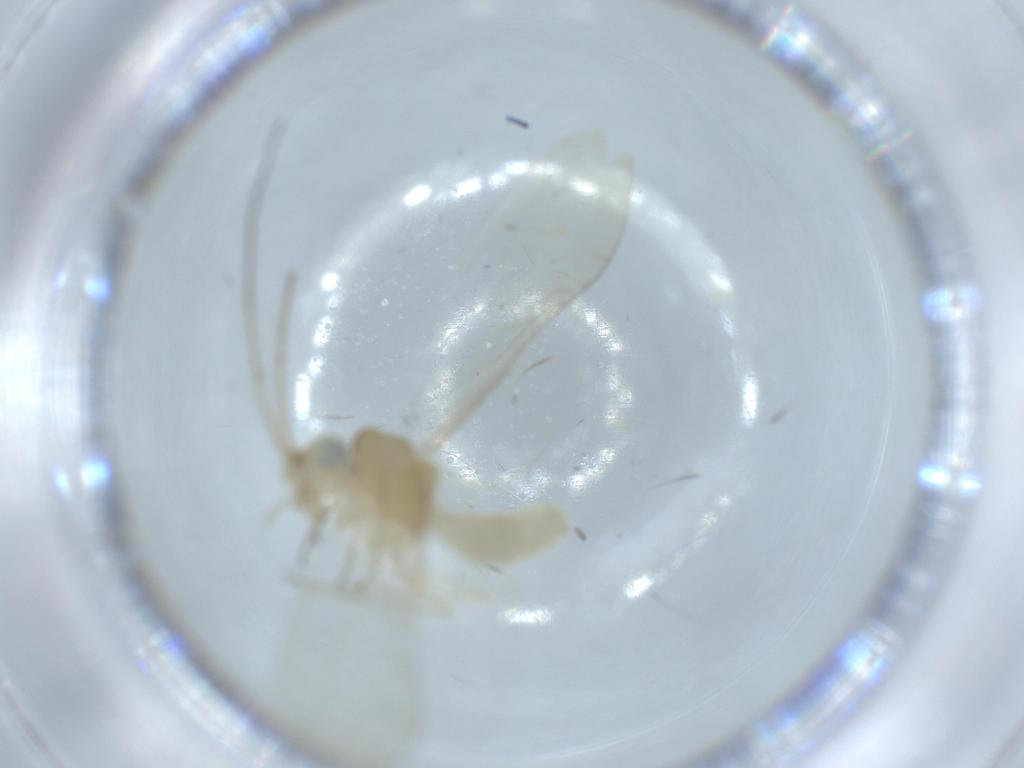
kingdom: Animalia
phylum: Arthropoda
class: Insecta
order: Psocodea
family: Caeciliusidae
